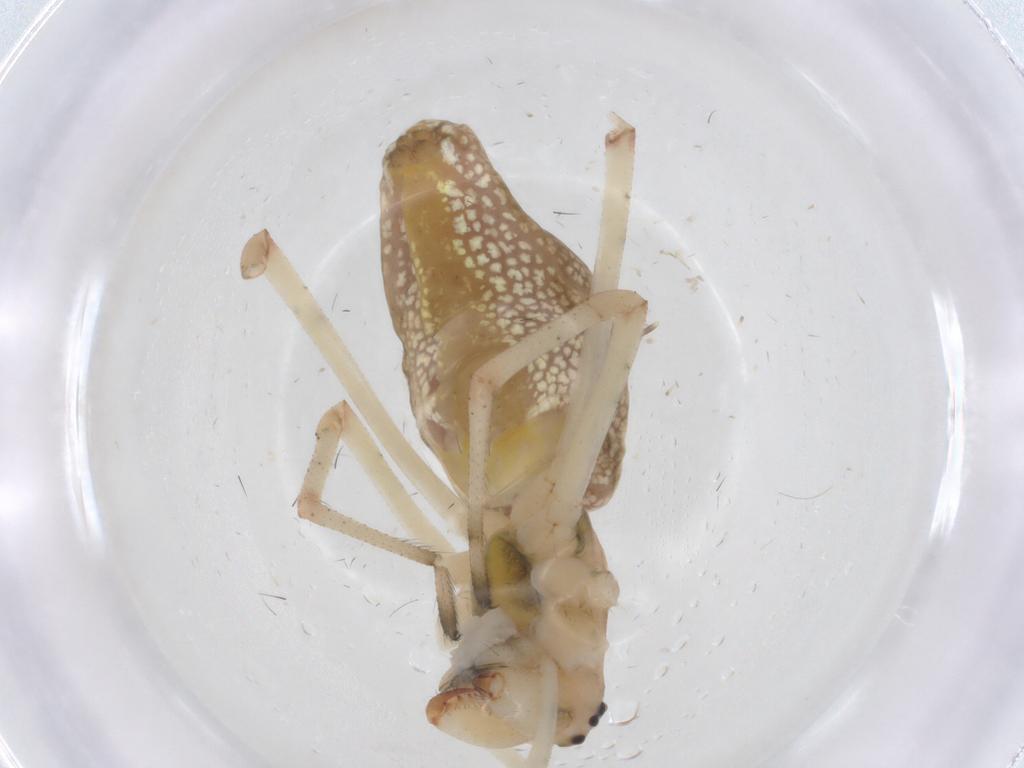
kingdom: Animalia
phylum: Arthropoda
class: Arachnida
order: Araneae
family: Tetragnathidae
